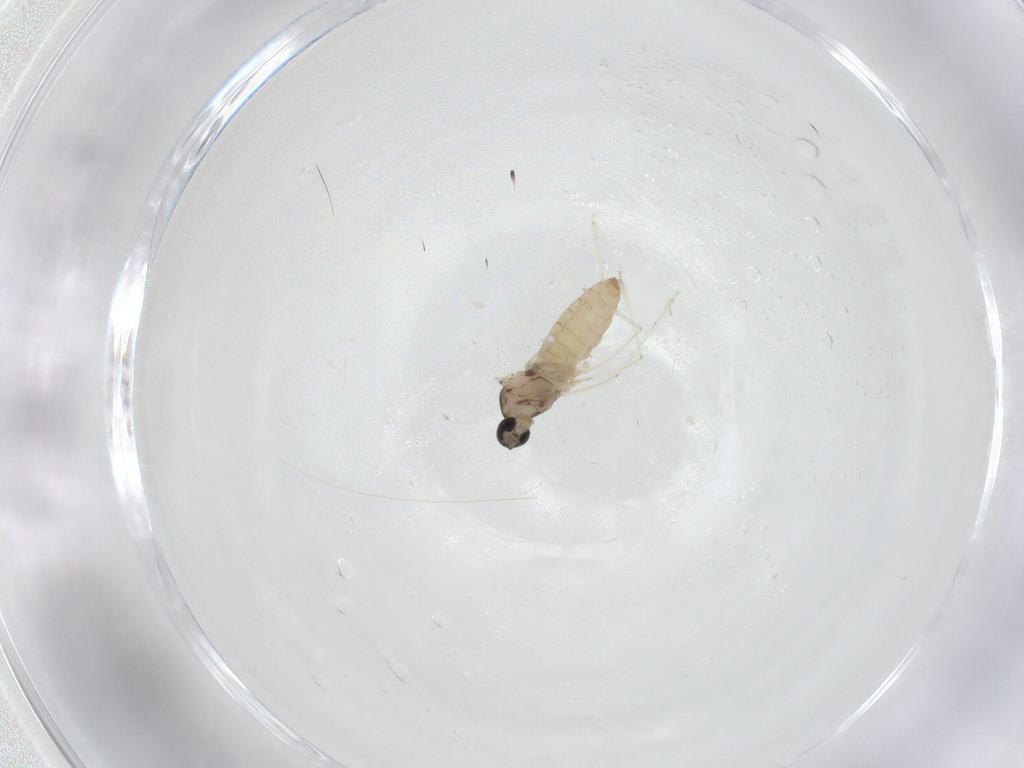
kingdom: Animalia
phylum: Arthropoda
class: Insecta
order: Diptera
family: Cecidomyiidae
